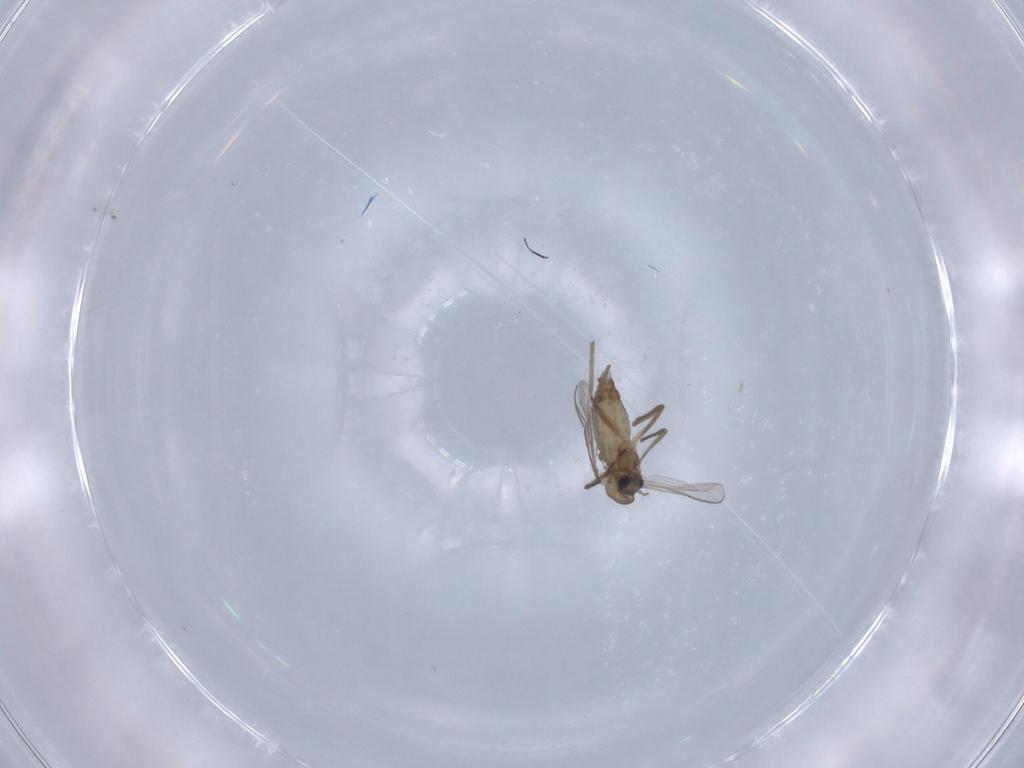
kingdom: Animalia
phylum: Arthropoda
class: Insecta
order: Diptera
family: Chironomidae
